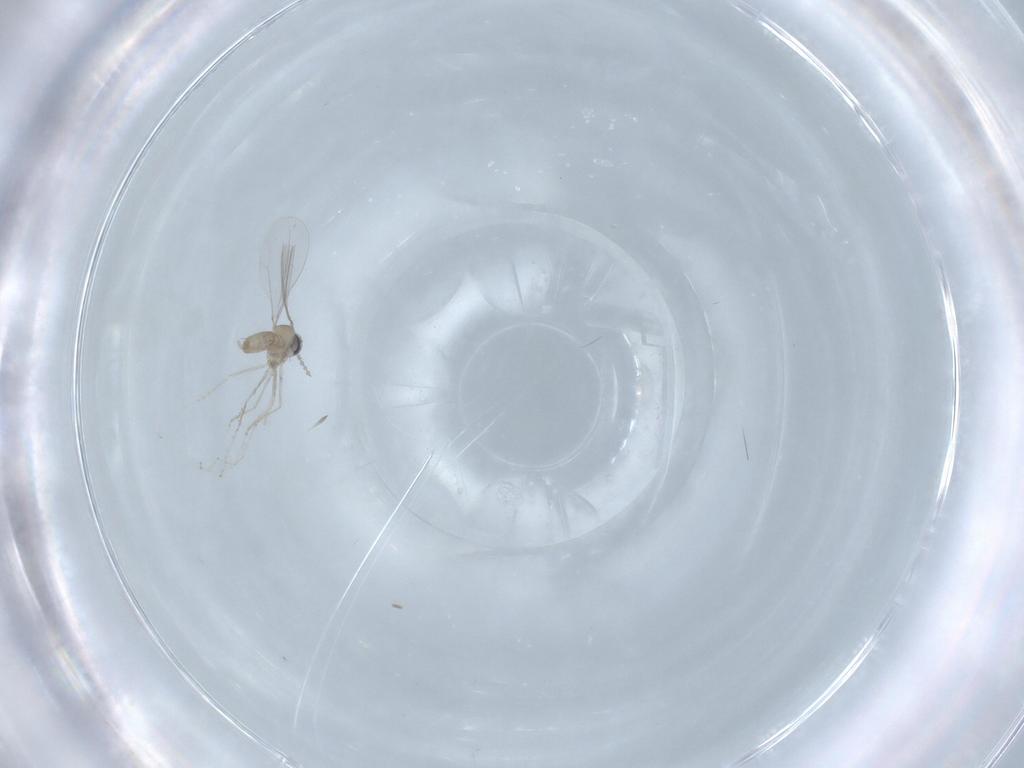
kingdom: Animalia
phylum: Arthropoda
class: Insecta
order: Diptera
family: Cecidomyiidae
